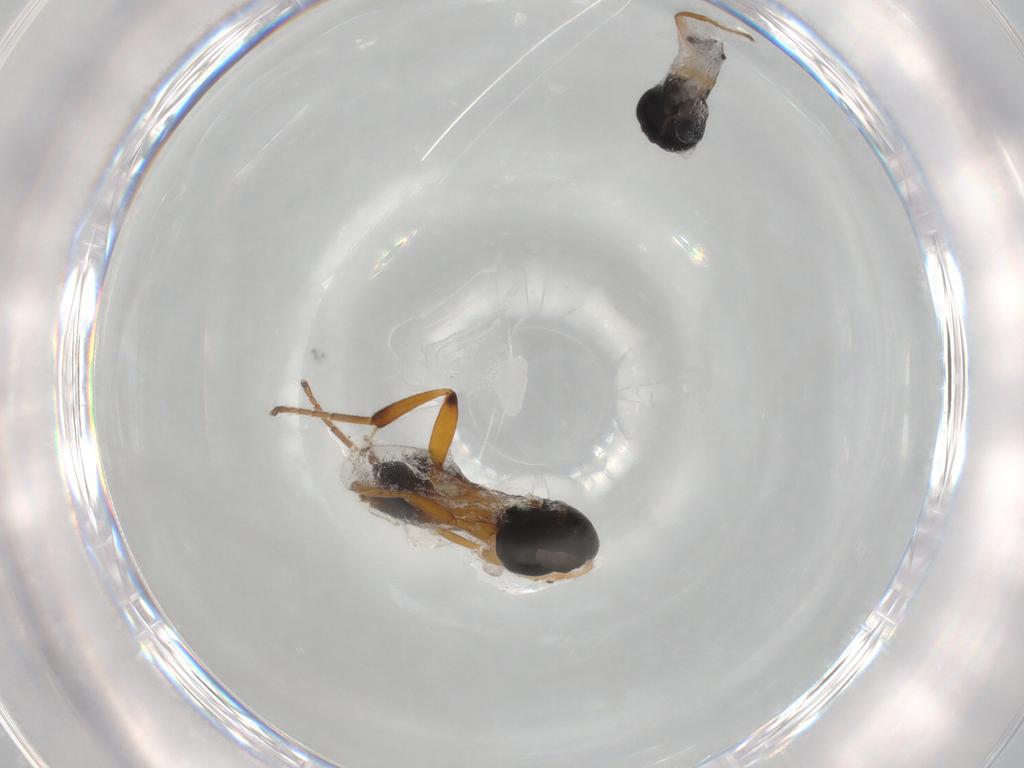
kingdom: Animalia
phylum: Arthropoda
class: Insecta
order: Hymenoptera
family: Braconidae
